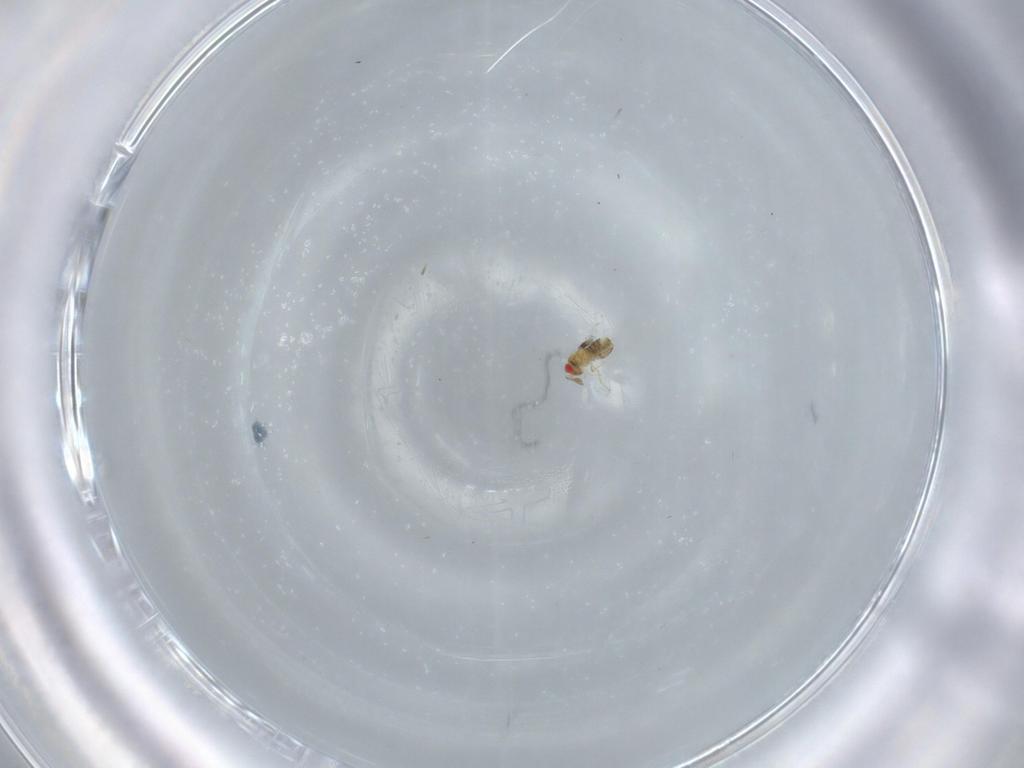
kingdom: Animalia
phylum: Arthropoda
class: Insecta
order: Hymenoptera
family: Trichogrammatidae
